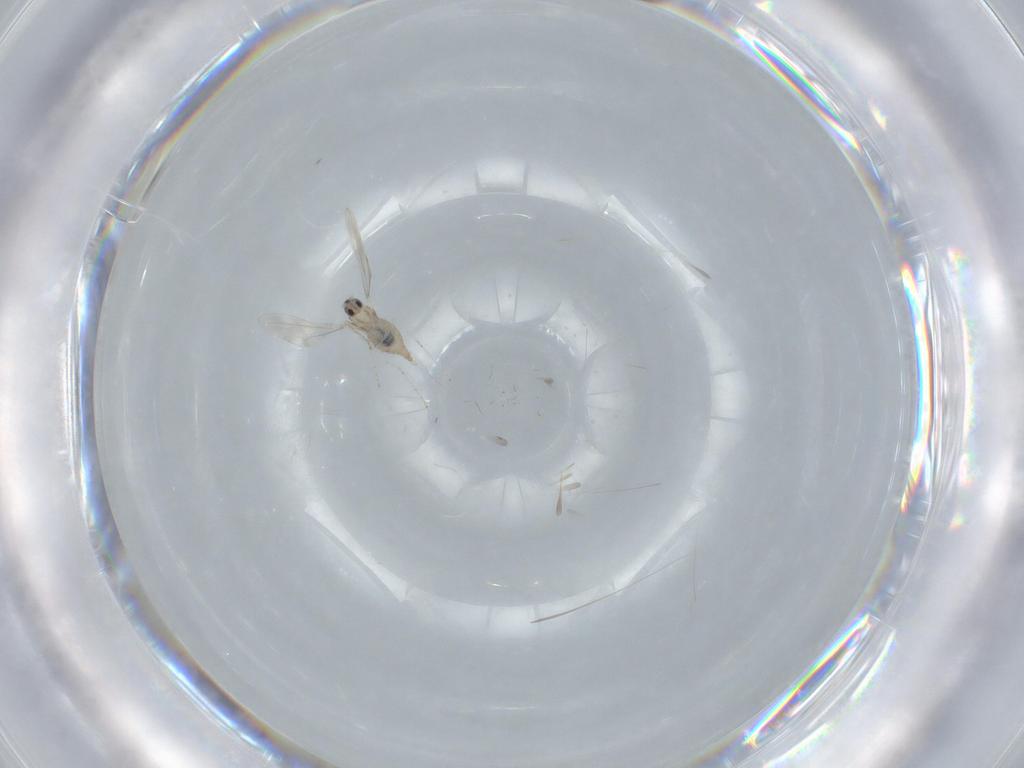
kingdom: Animalia
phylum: Arthropoda
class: Insecta
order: Diptera
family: Cecidomyiidae
